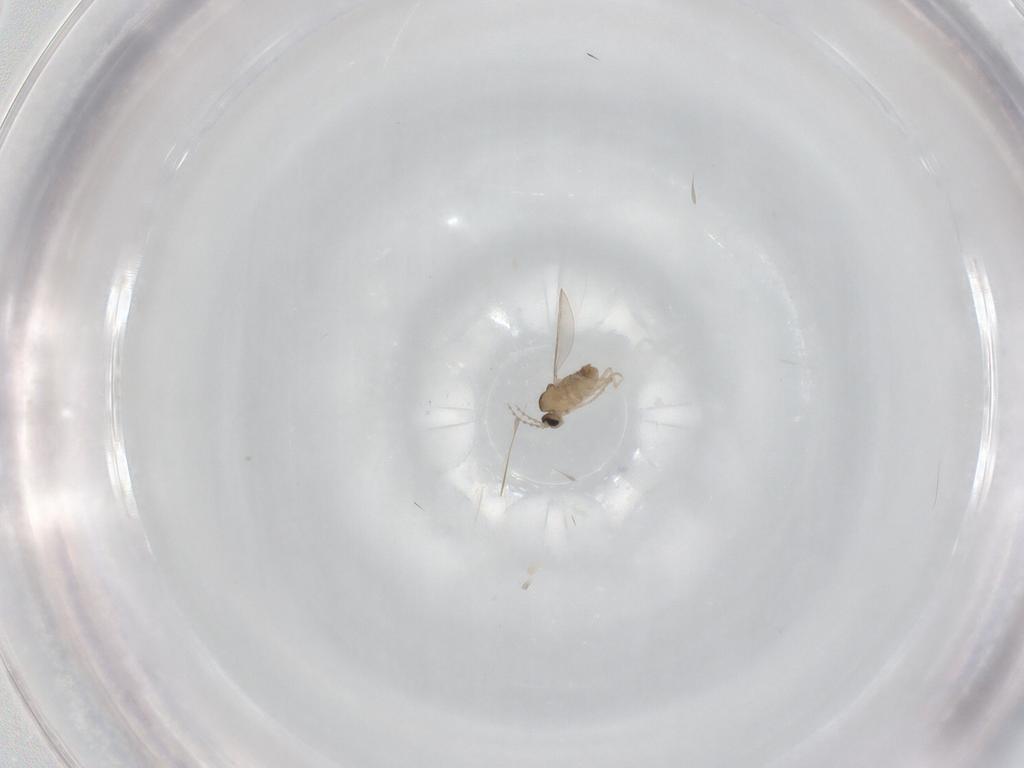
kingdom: Animalia
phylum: Arthropoda
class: Insecta
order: Diptera
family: Cecidomyiidae
